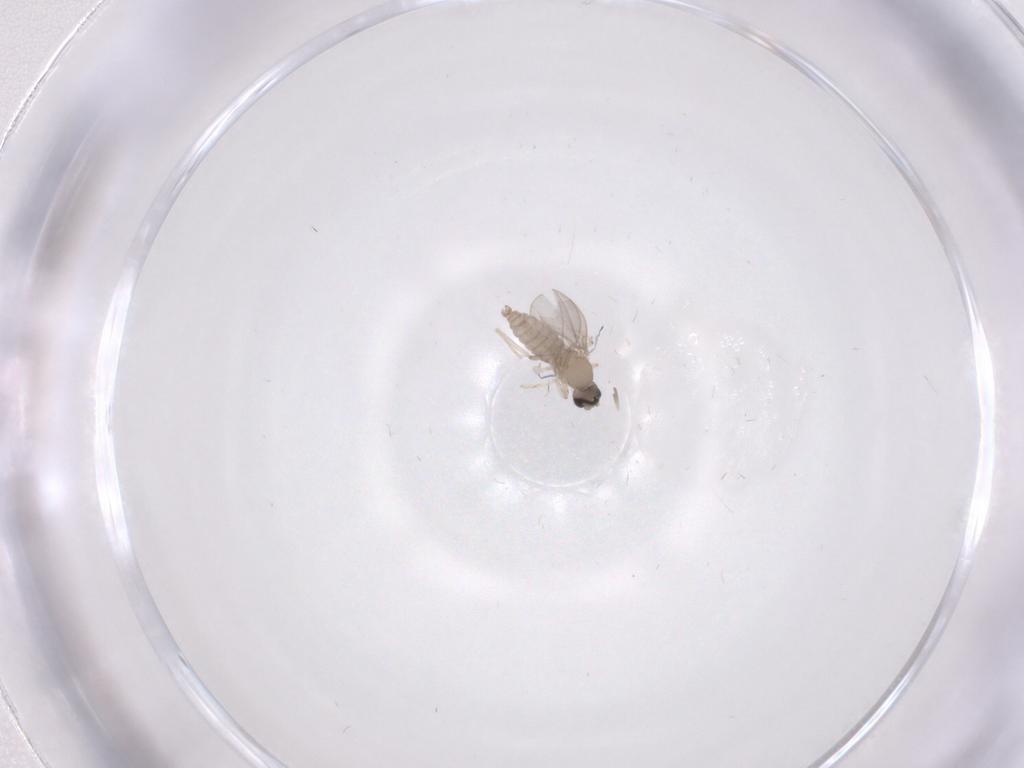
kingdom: Animalia
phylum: Arthropoda
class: Insecta
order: Diptera
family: Cecidomyiidae
